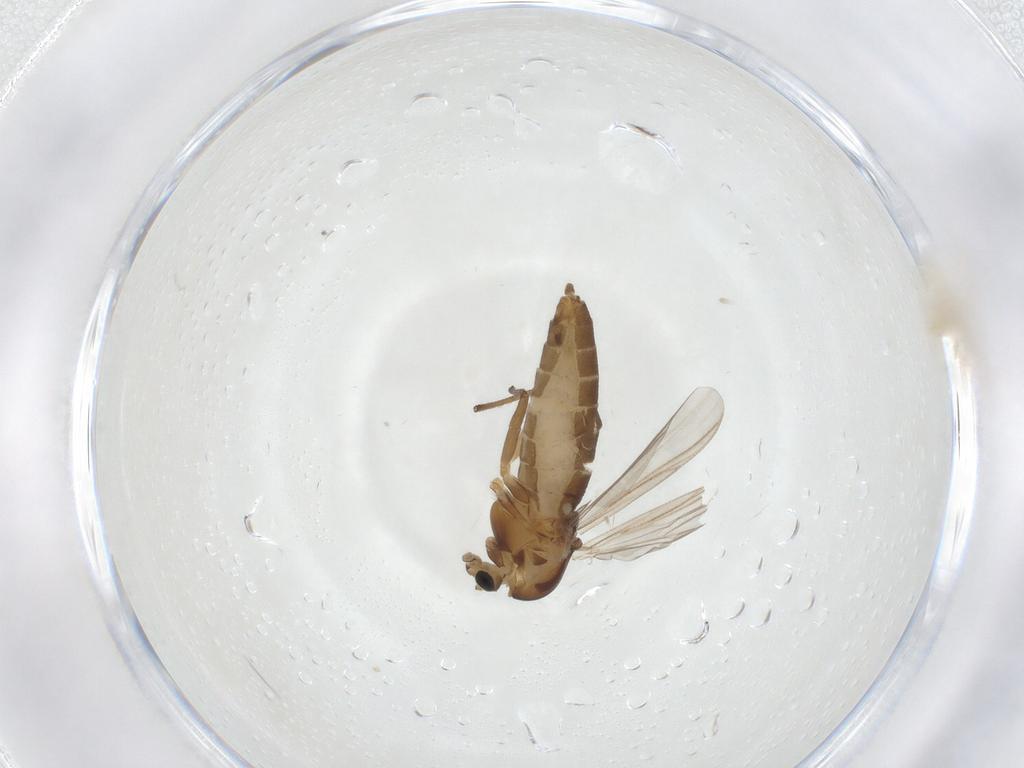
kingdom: Animalia
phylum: Arthropoda
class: Insecta
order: Diptera
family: Chironomidae
